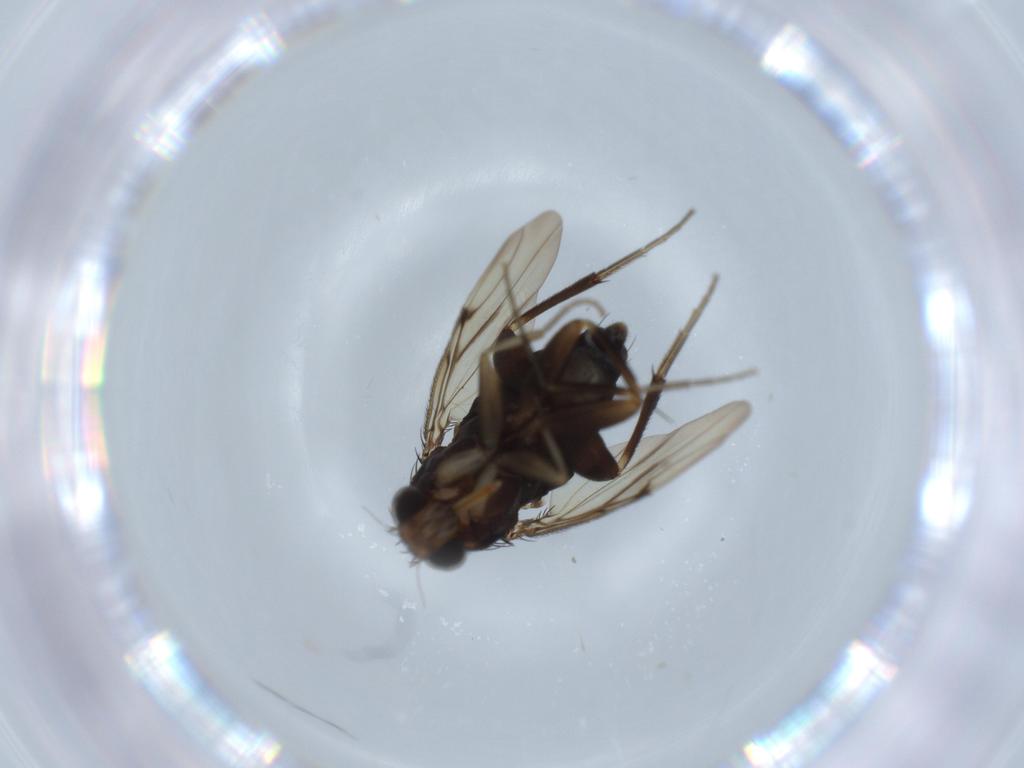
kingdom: Animalia
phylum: Arthropoda
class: Insecta
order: Diptera
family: Phoridae
